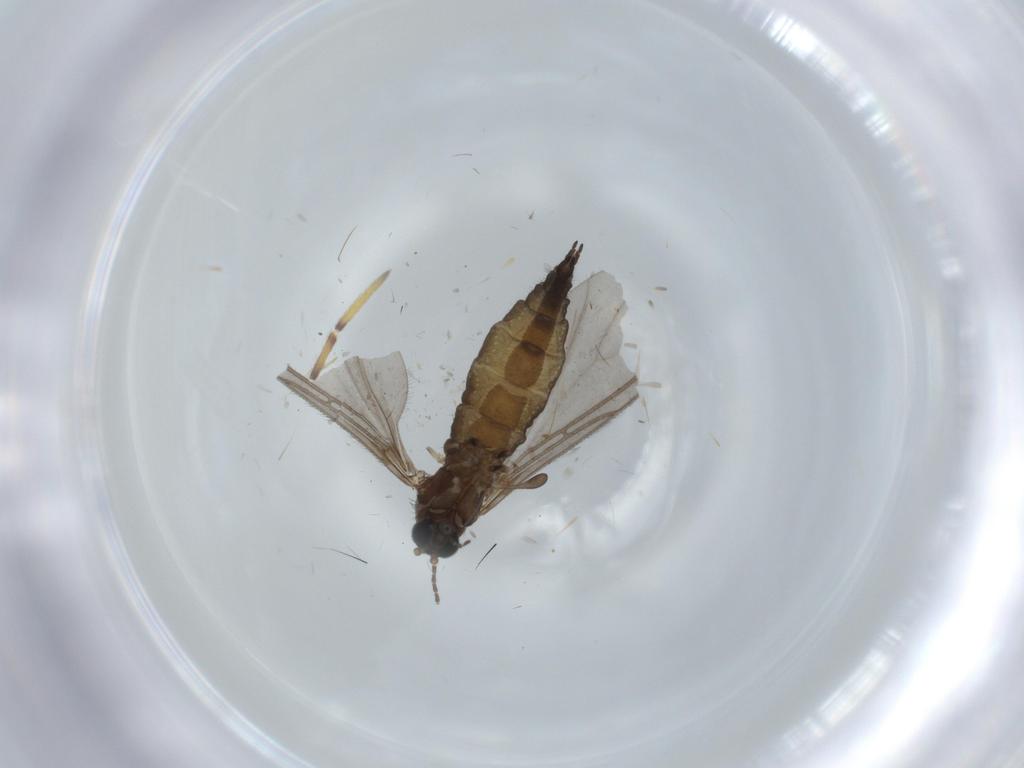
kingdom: Animalia
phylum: Arthropoda
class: Insecta
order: Diptera
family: Sciaridae
